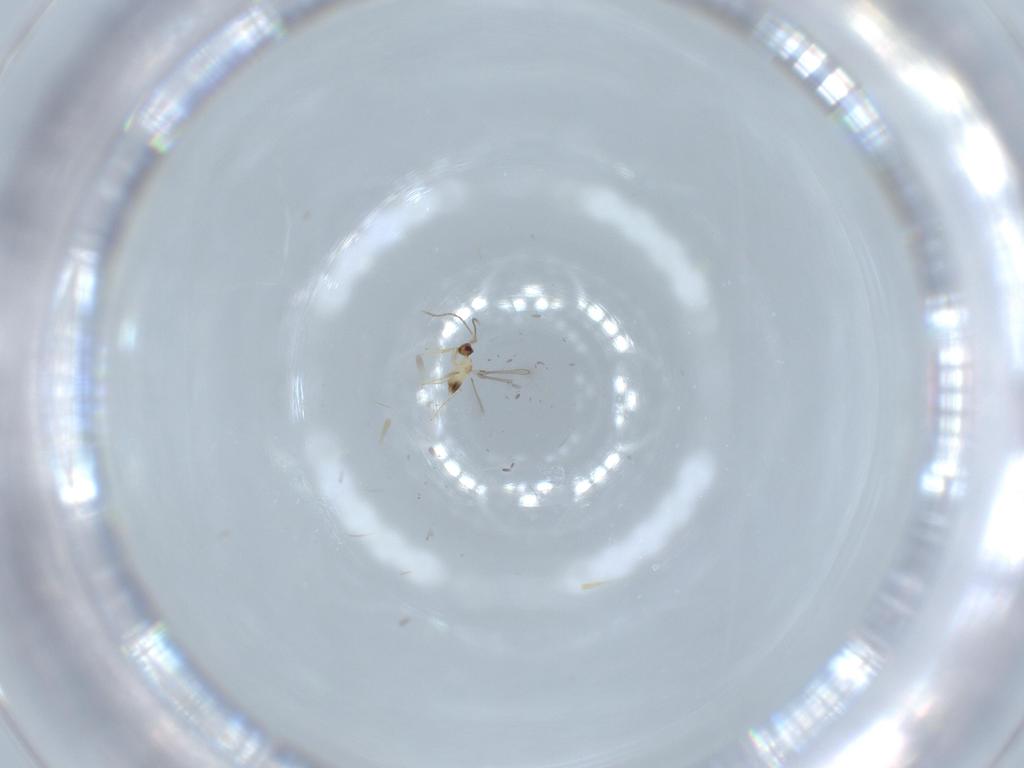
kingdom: Animalia
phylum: Arthropoda
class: Insecta
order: Hymenoptera
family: Mymaridae
